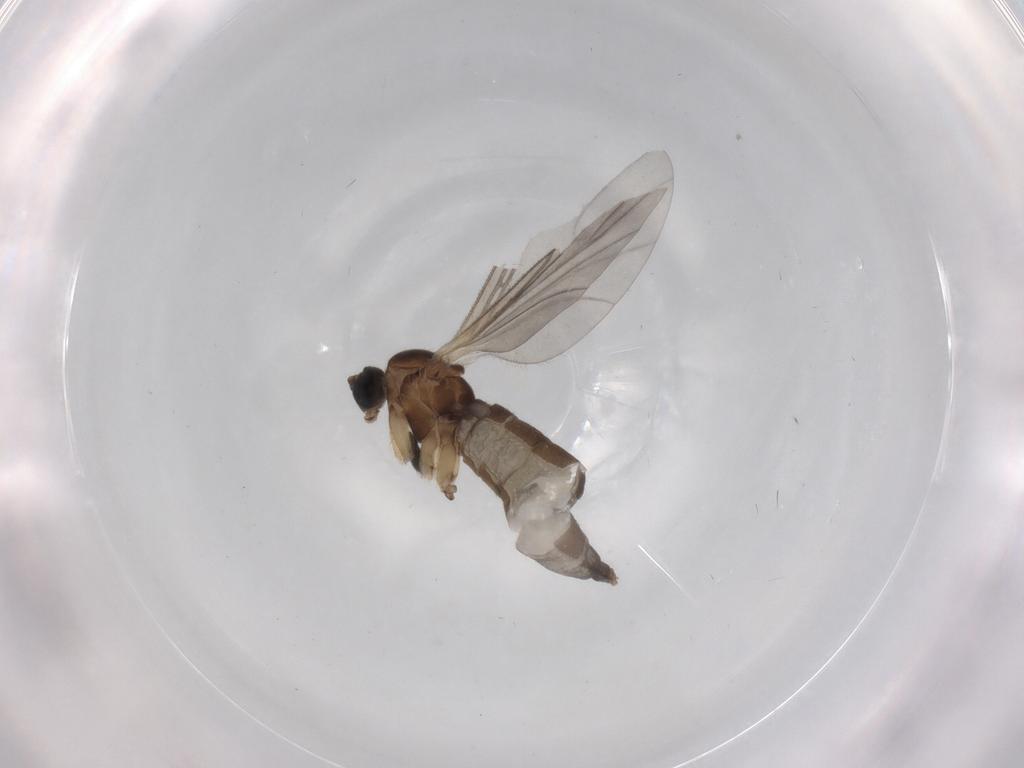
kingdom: Animalia
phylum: Arthropoda
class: Insecta
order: Diptera
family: Sciaridae
